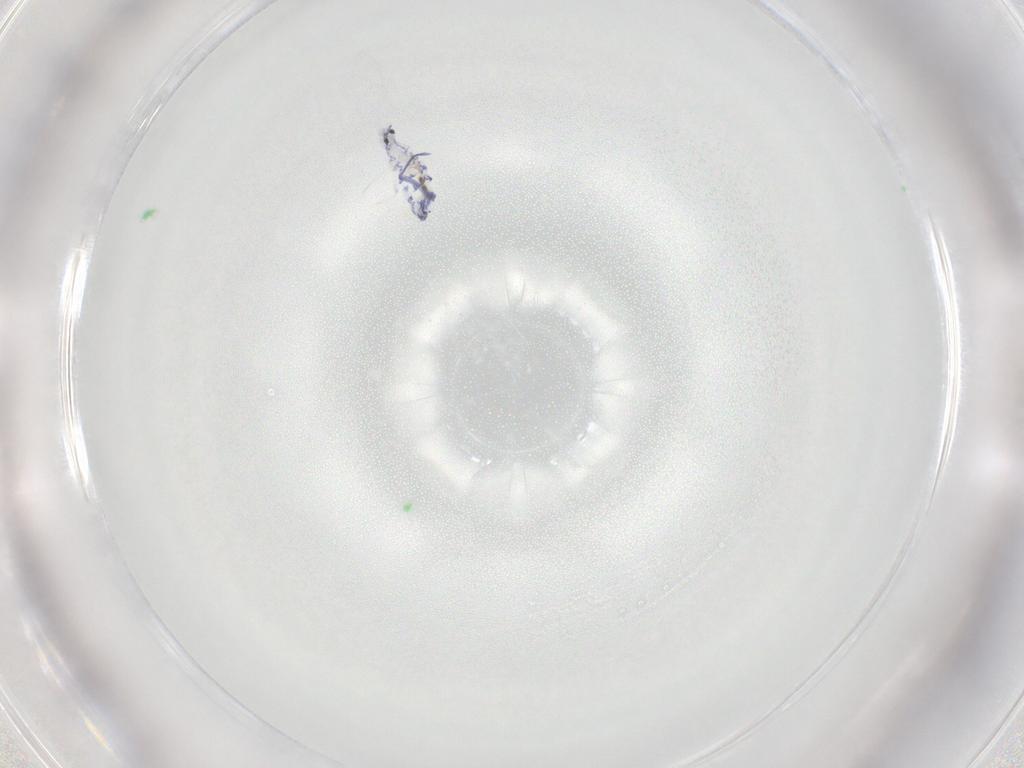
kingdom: Animalia
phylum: Arthropoda
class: Collembola
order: Entomobryomorpha
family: Entomobryidae
